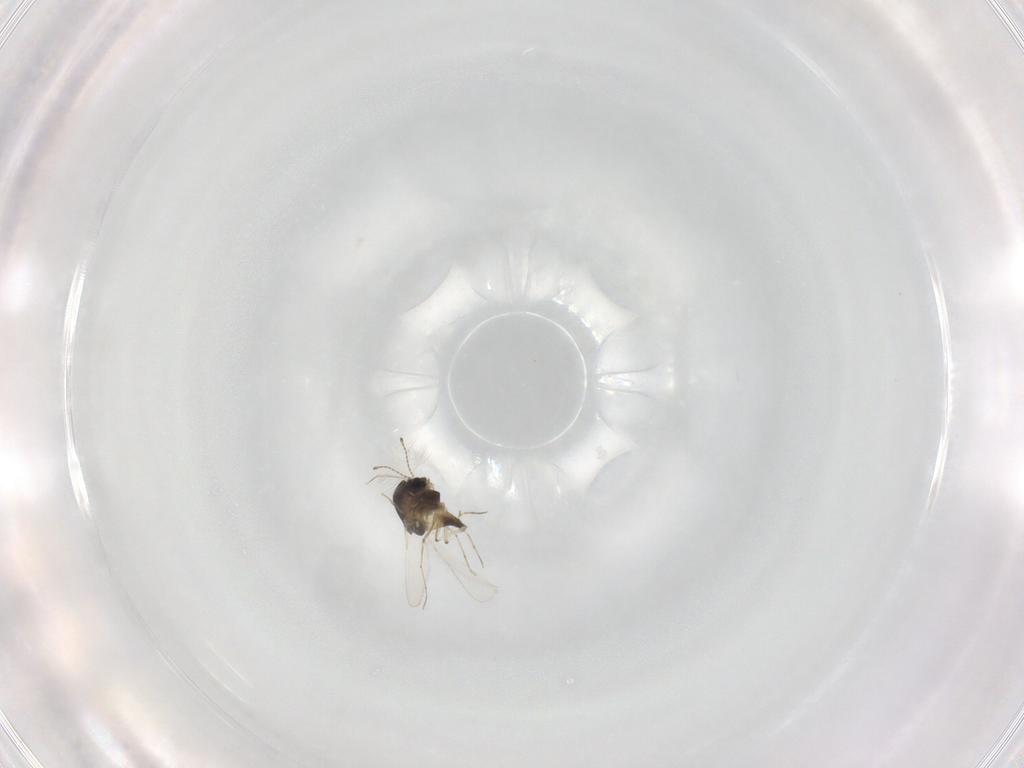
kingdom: Animalia
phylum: Arthropoda
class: Insecta
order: Diptera
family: Chironomidae
